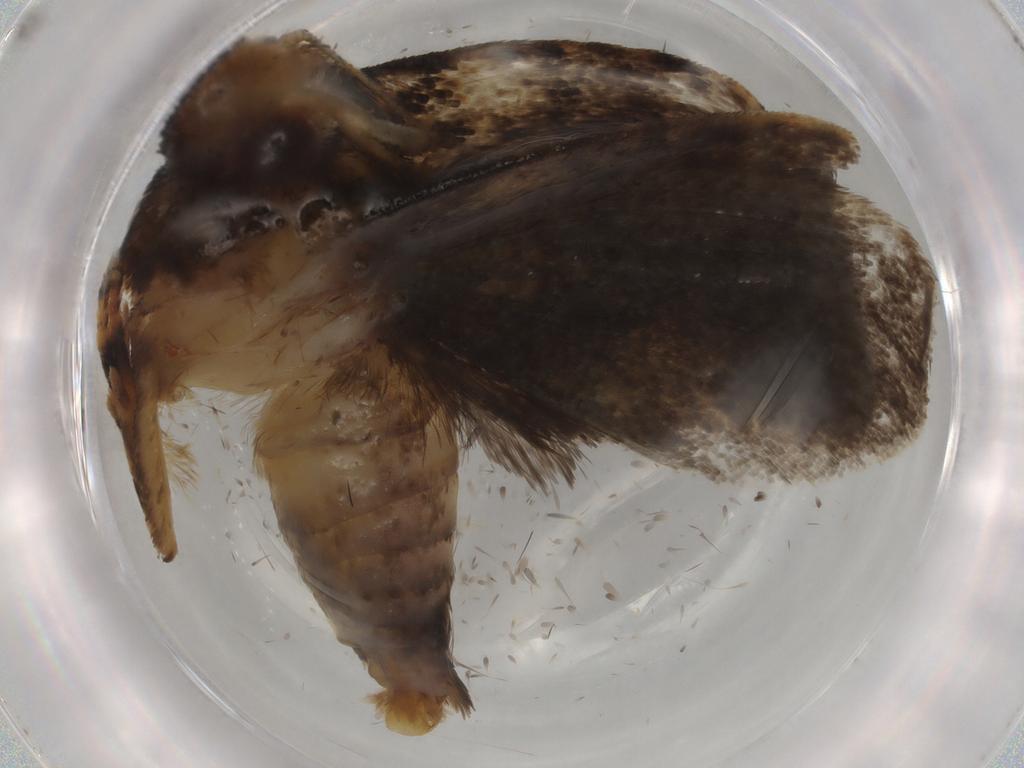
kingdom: Animalia
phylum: Arthropoda
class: Insecta
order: Lepidoptera
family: Tineidae
